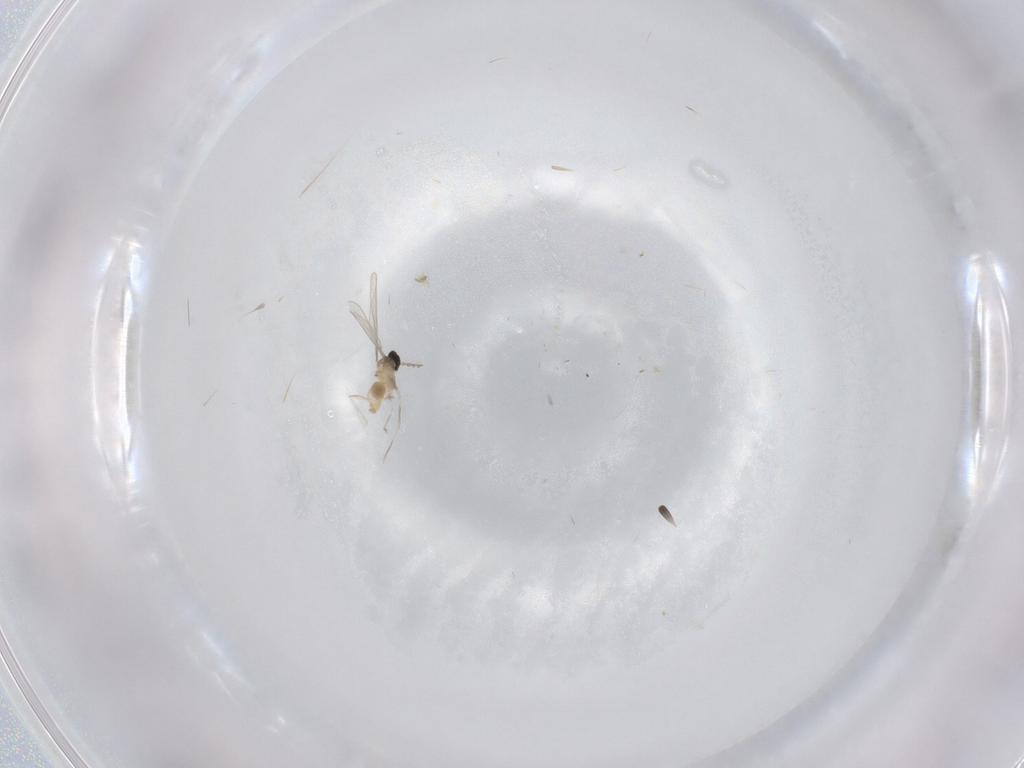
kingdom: Animalia
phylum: Arthropoda
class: Insecta
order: Diptera
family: Cecidomyiidae
